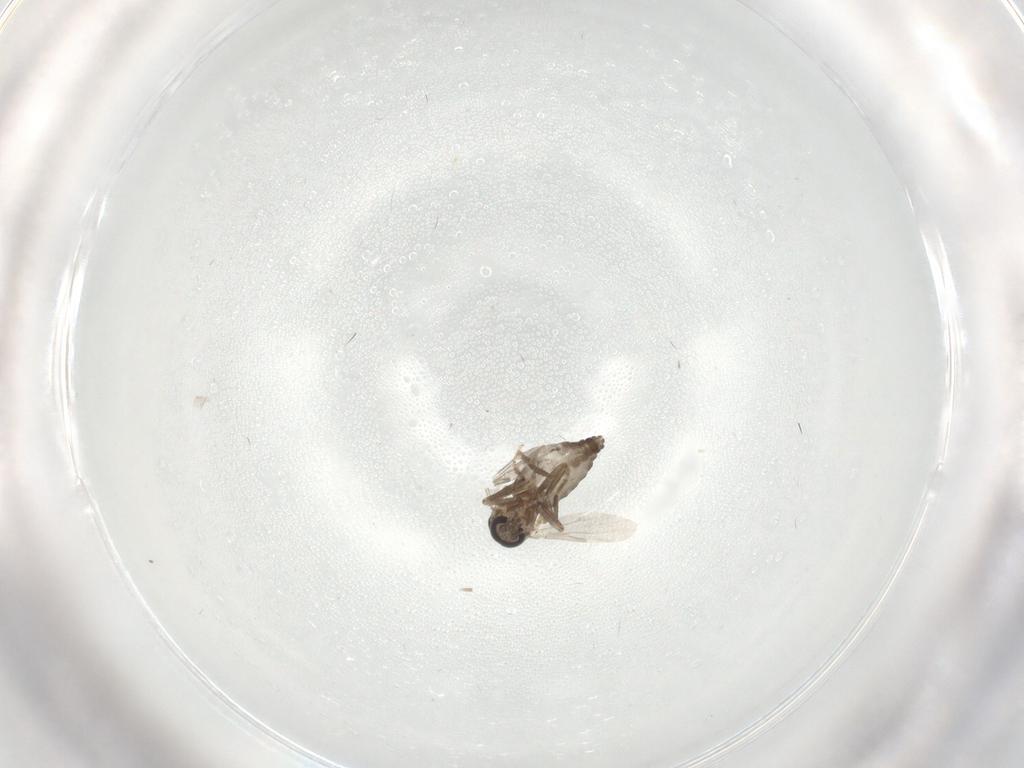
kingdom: Animalia
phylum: Arthropoda
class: Insecta
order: Diptera
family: Ceratopogonidae
